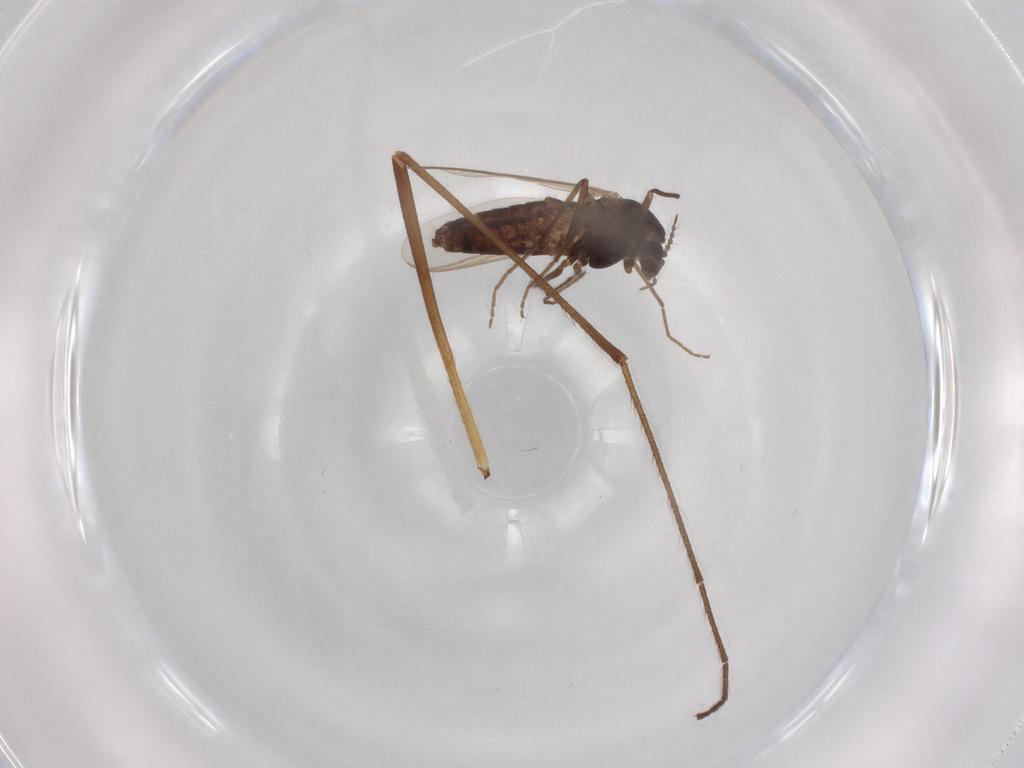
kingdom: Animalia
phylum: Arthropoda
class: Insecta
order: Diptera
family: Limoniidae
